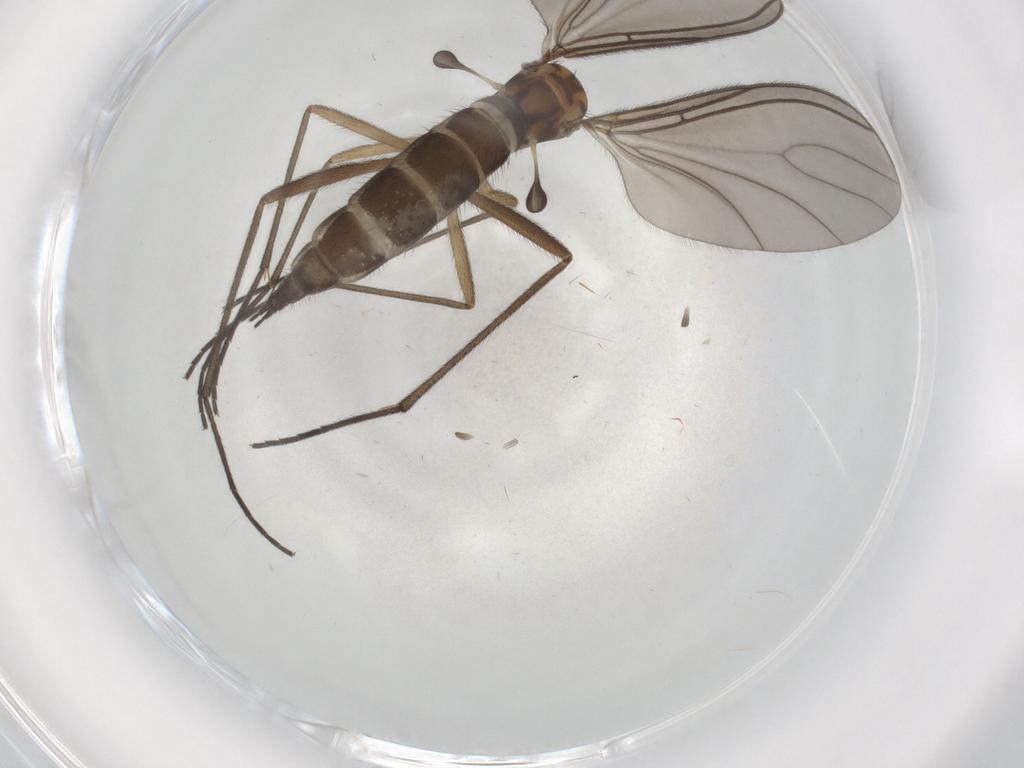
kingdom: Animalia
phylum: Arthropoda
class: Insecta
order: Diptera
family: Sciaridae
